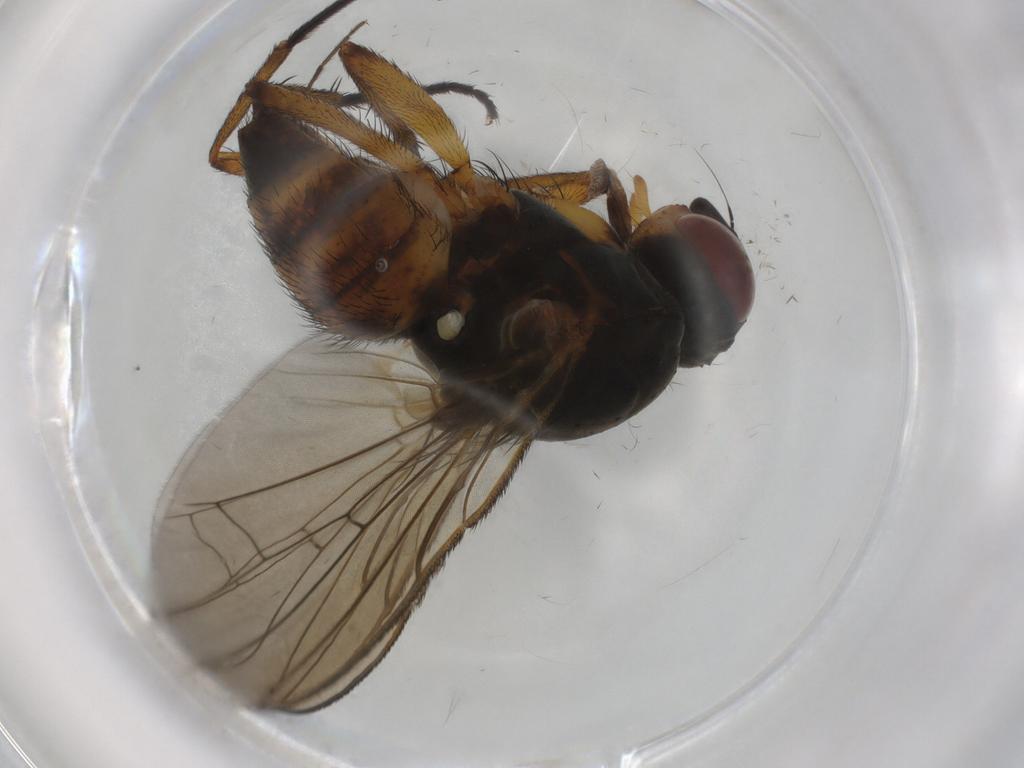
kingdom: Animalia
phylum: Arthropoda
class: Insecta
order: Diptera
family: Anthomyiidae
